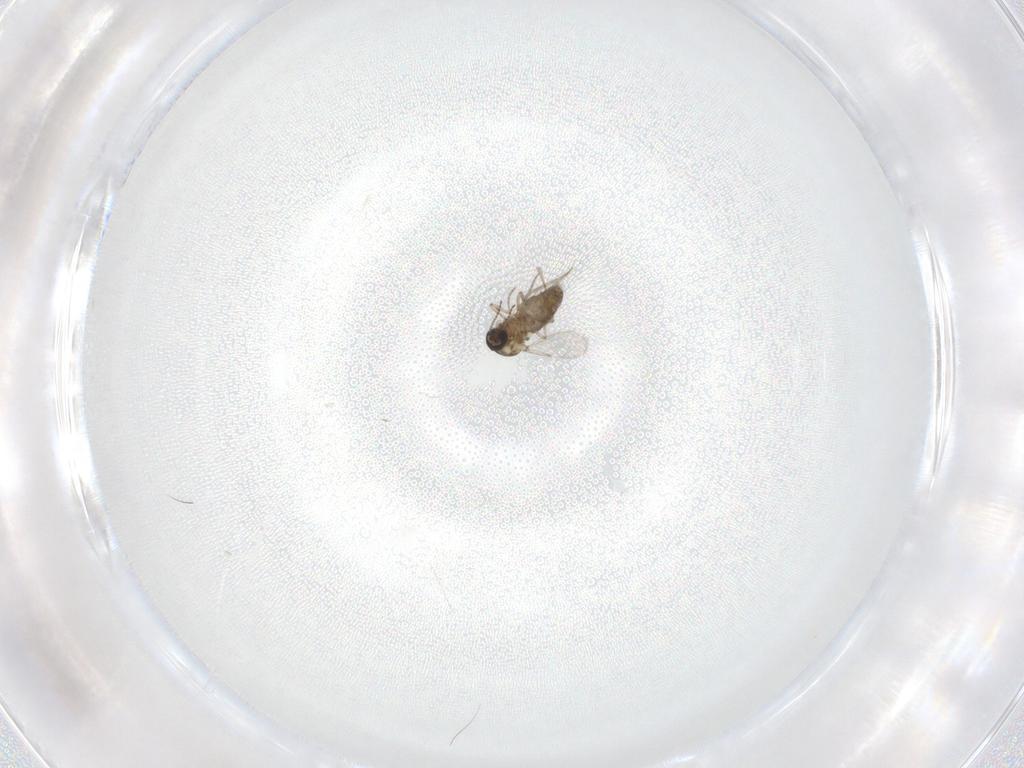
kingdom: Animalia
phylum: Arthropoda
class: Insecta
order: Diptera
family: Ceratopogonidae
